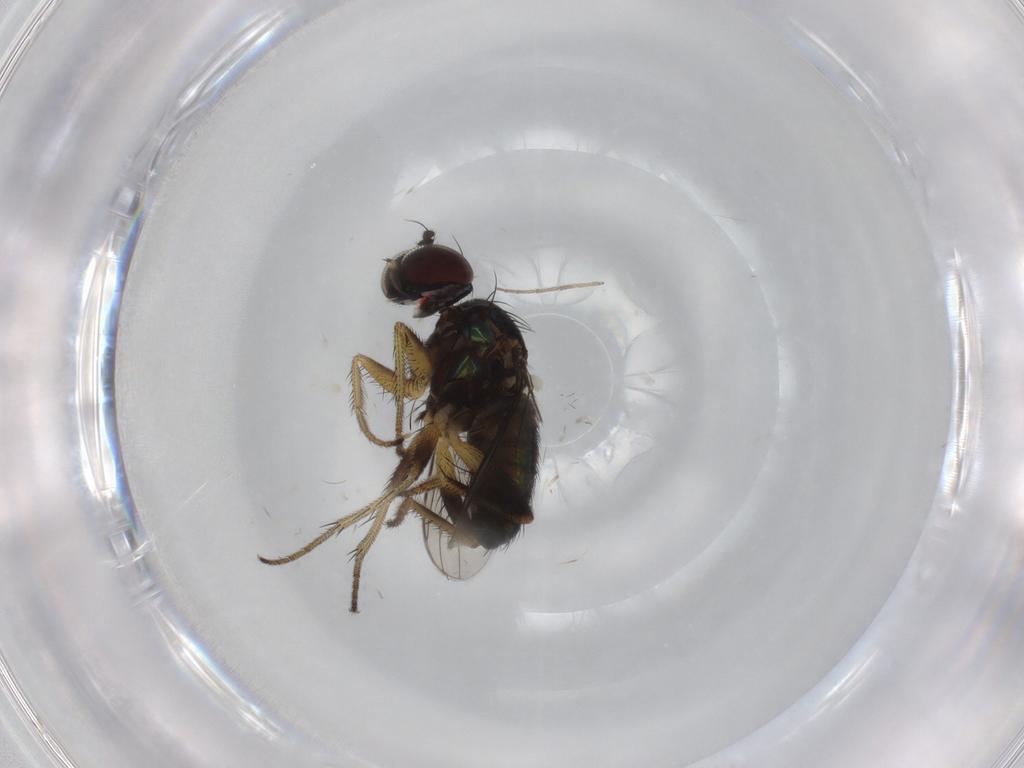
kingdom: Animalia
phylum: Arthropoda
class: Insecta
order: Diptera
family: Dolichopodidae
